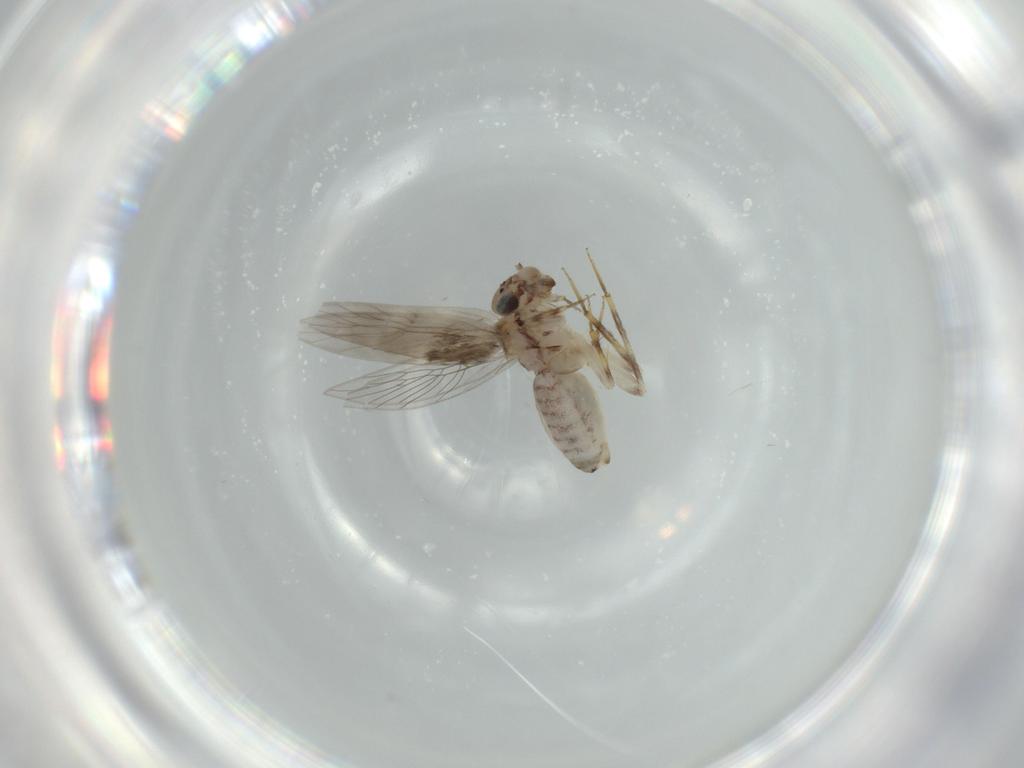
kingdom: Animalia
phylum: Arthropoda
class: Insecta
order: Psocodea
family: Lepidopsocidae
